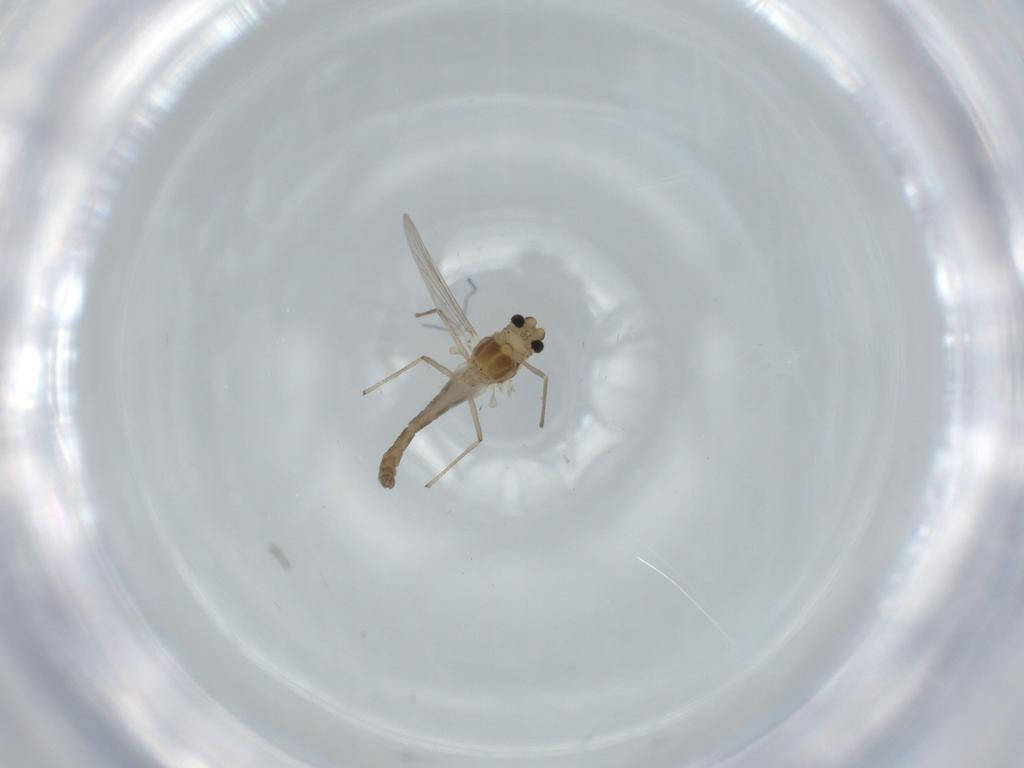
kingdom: Animalia
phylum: Arthropoda
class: Insecta
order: Diptera
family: Chironomidae
